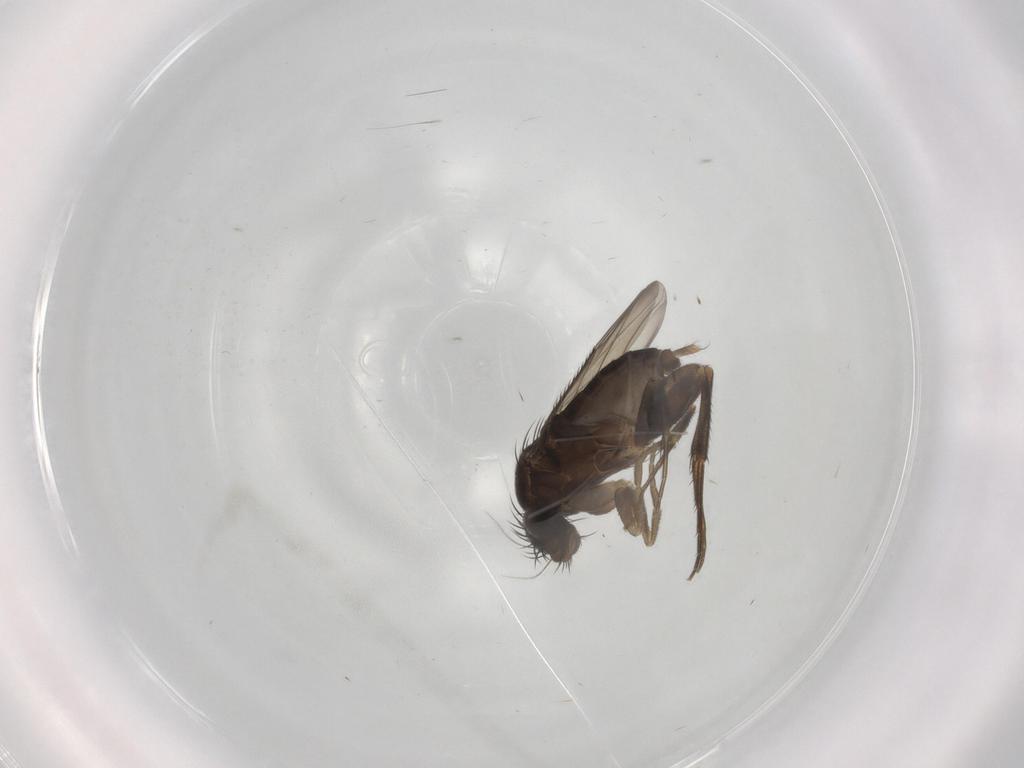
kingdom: Animalia
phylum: Arthropoda
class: Insecta
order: Diptera
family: Phoridae
